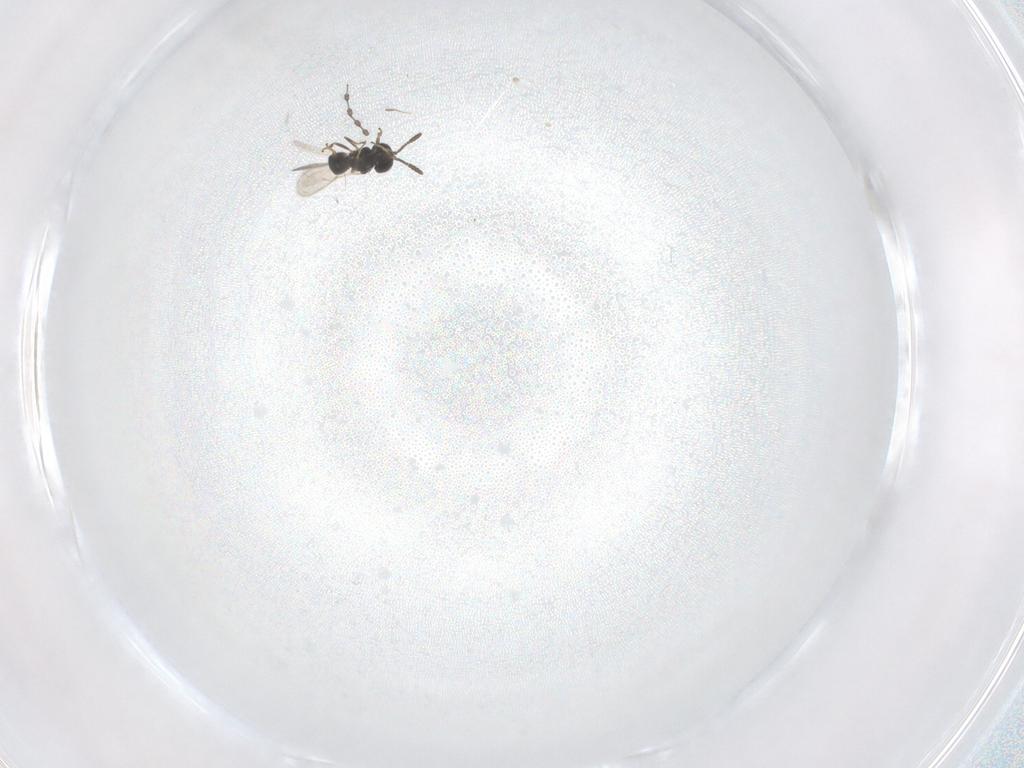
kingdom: Animalia
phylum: Arthropoda
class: Insecta
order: Hymenoptera
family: Scelionidae
